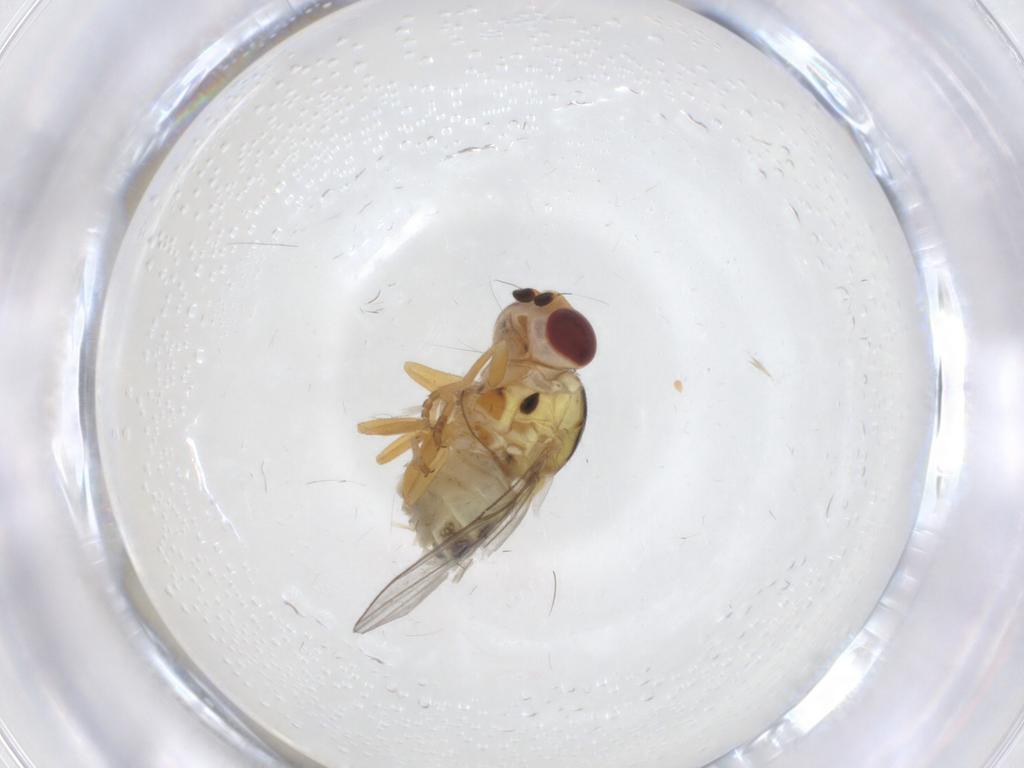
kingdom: Animalia
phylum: Arthropoda
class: Insecta
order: Diptera
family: Chloropidae
